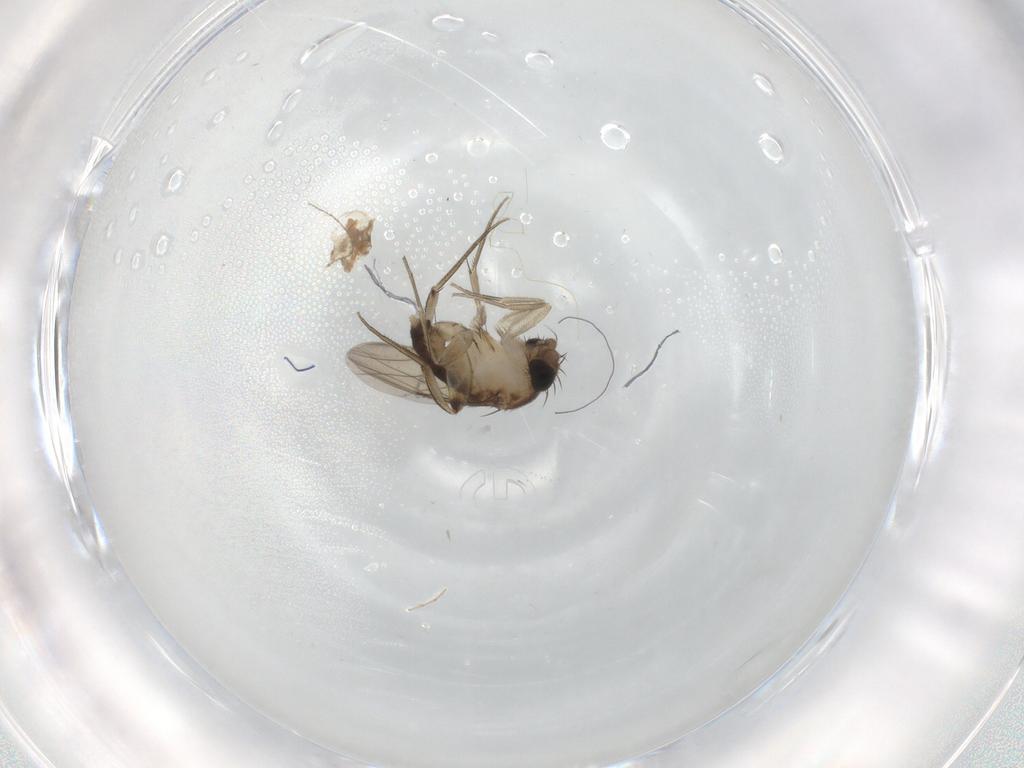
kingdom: Animalia
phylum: Arthropoda
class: Insecta
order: Diptera
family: Phoridae
